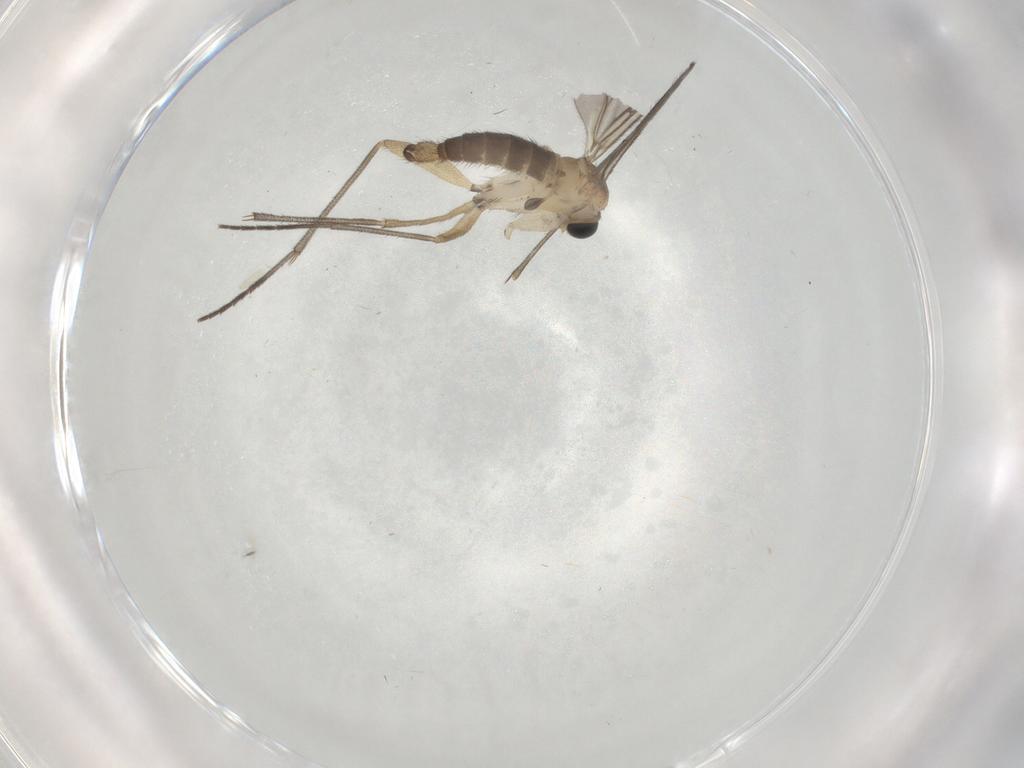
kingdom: Animalia
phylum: Arthropoda
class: Insecta
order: Diptera
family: Sciaridae
